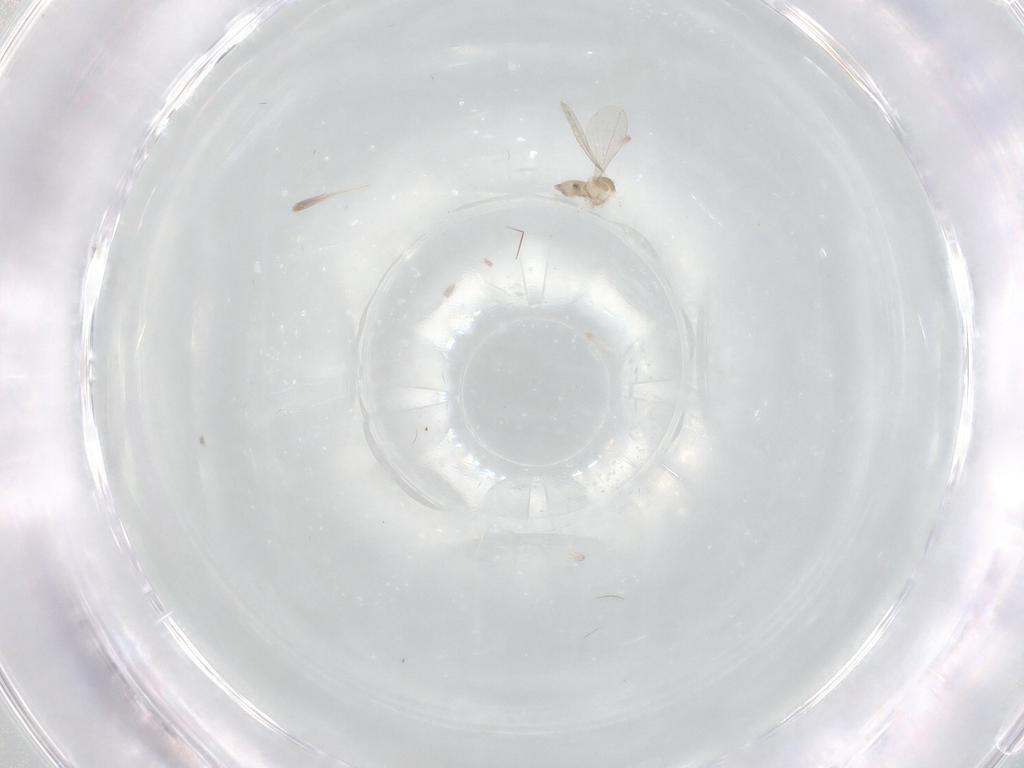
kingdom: Animalia
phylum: Arthropoda
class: Insecta
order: Diptera
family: Cecidomyiidae
